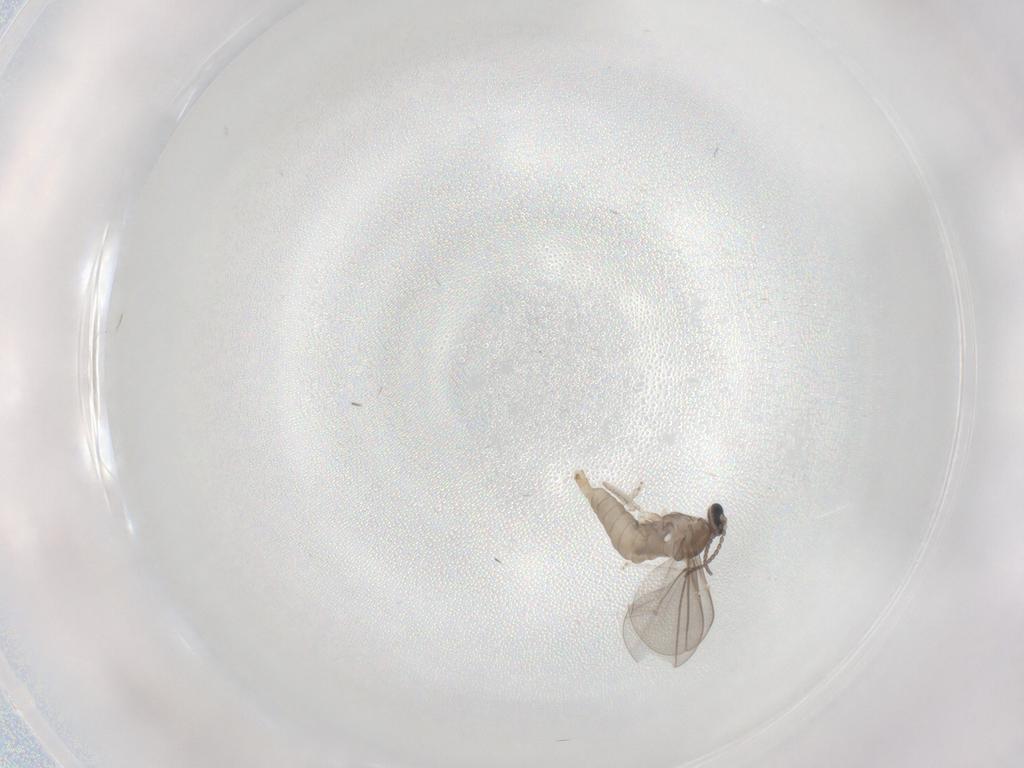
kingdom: Animalia
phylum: Arthropoda
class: Insecta
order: Diptera
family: Cecidomyiidae
